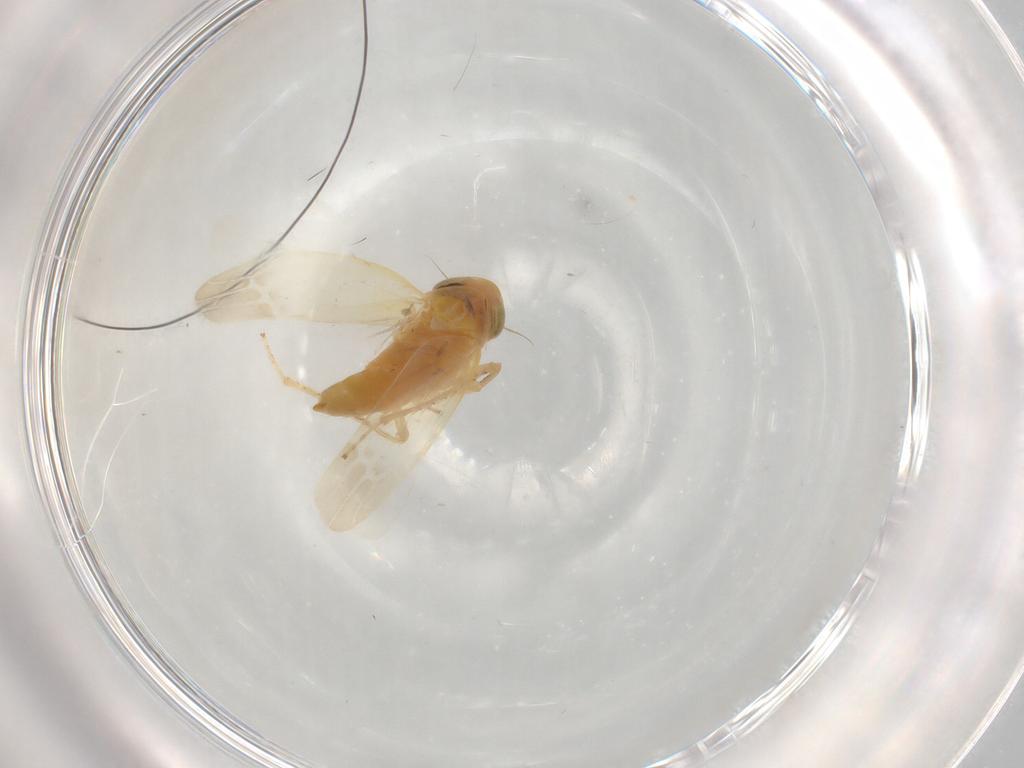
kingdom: Animalia
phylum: Arthropoda
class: Insecta
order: Hemiptera
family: Cicadellidae
